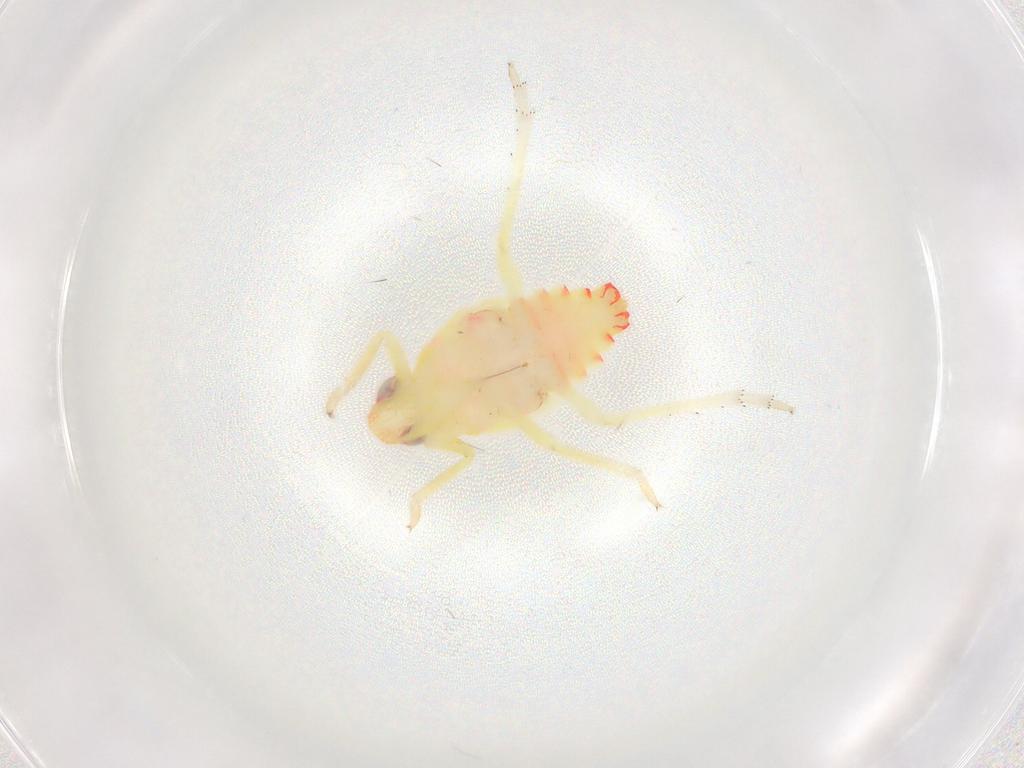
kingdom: Animalia
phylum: Arthropoda
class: Insecta
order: Hemiptera
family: Tropiduchidae
